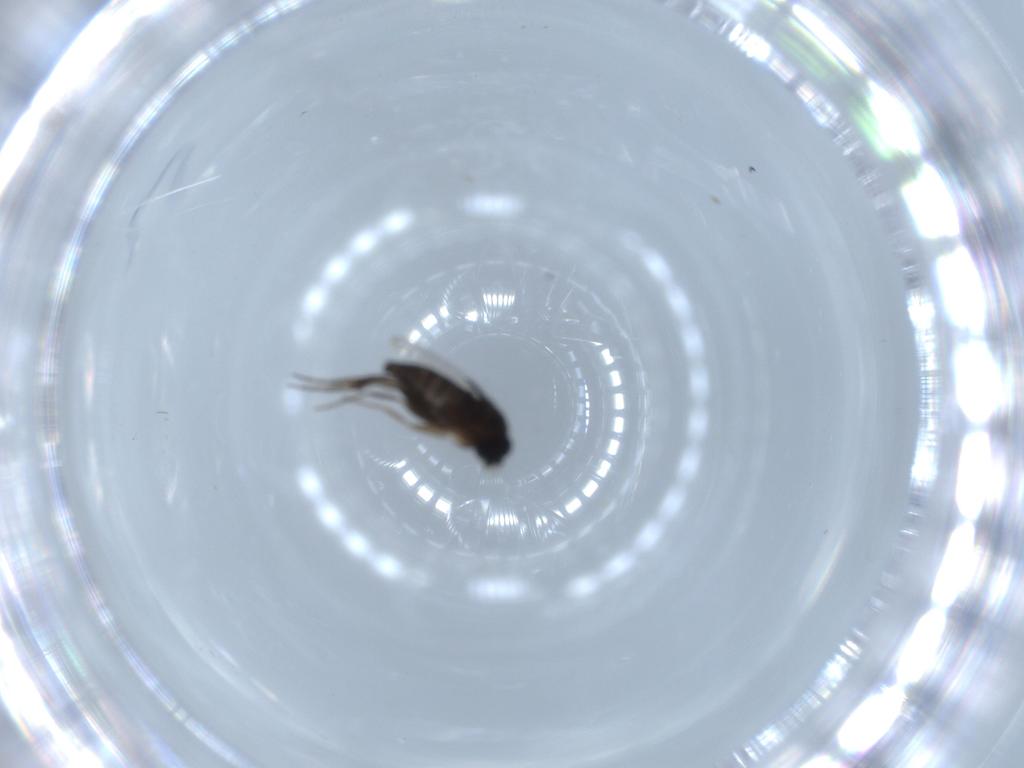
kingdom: Animalia
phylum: Arthropoda
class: Insecta
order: Diptera
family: Phoridae
